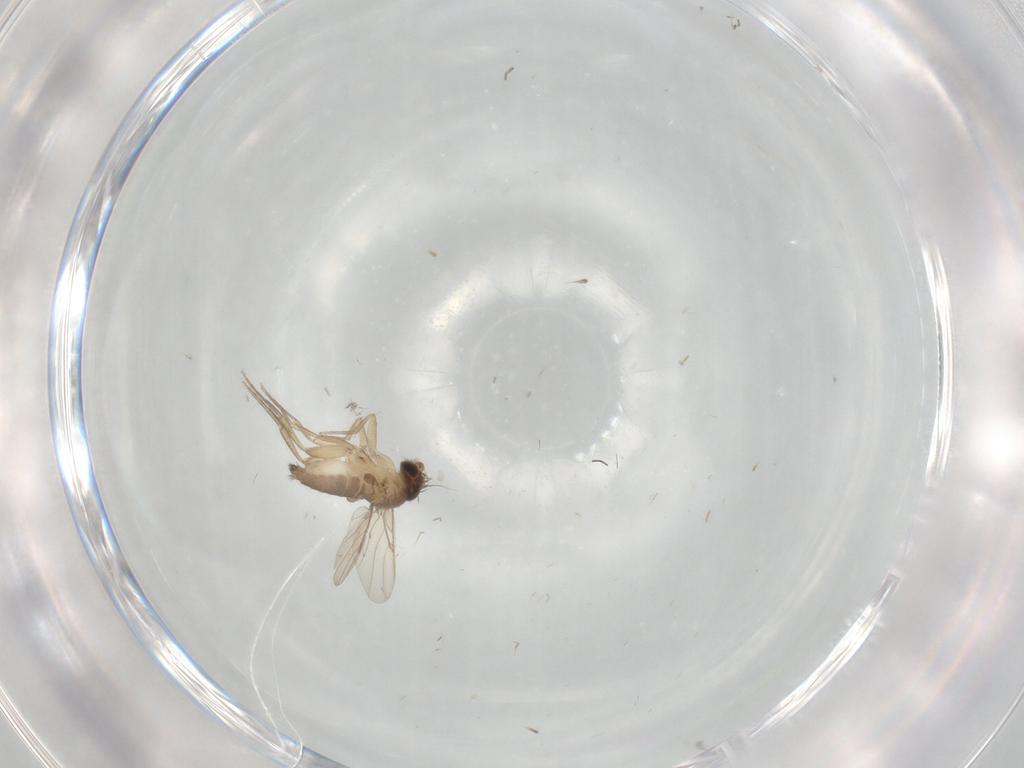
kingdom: Animalia
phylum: Arthropoda
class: Insecta
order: Diptera
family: Phoridae
